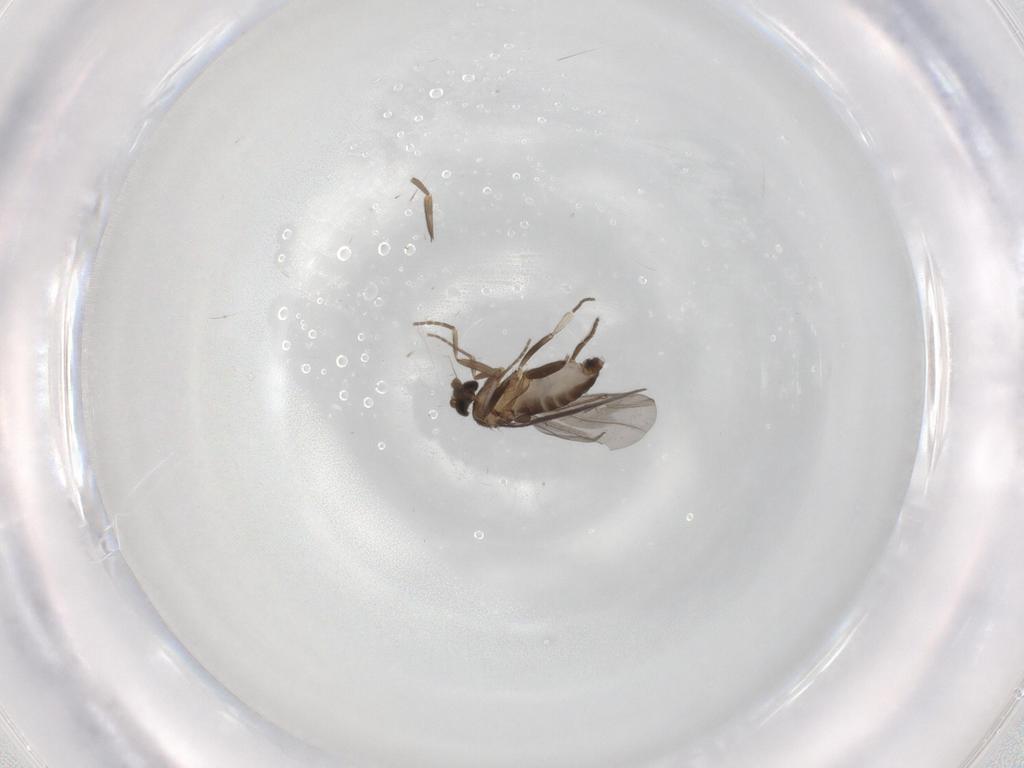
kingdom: Animalia
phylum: Arthropoda
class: Insecta
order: Diptera
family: Phoridae
